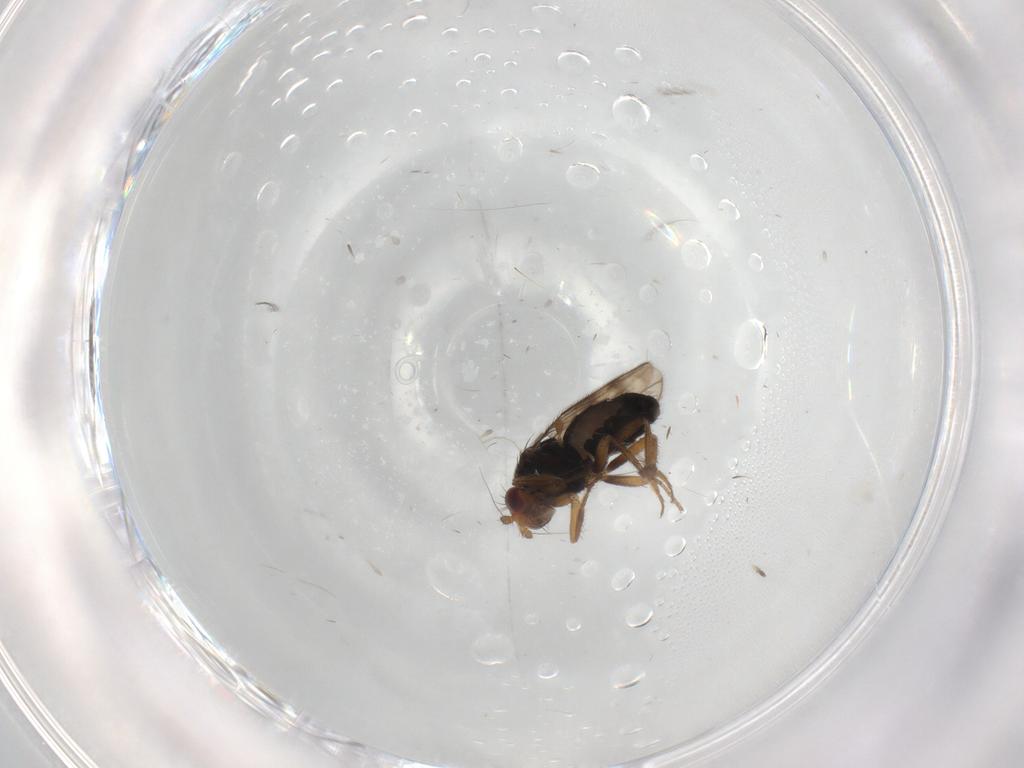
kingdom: Animalia
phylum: Arthropoda
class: Insecta
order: Diptera
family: Sphaeroceridae
